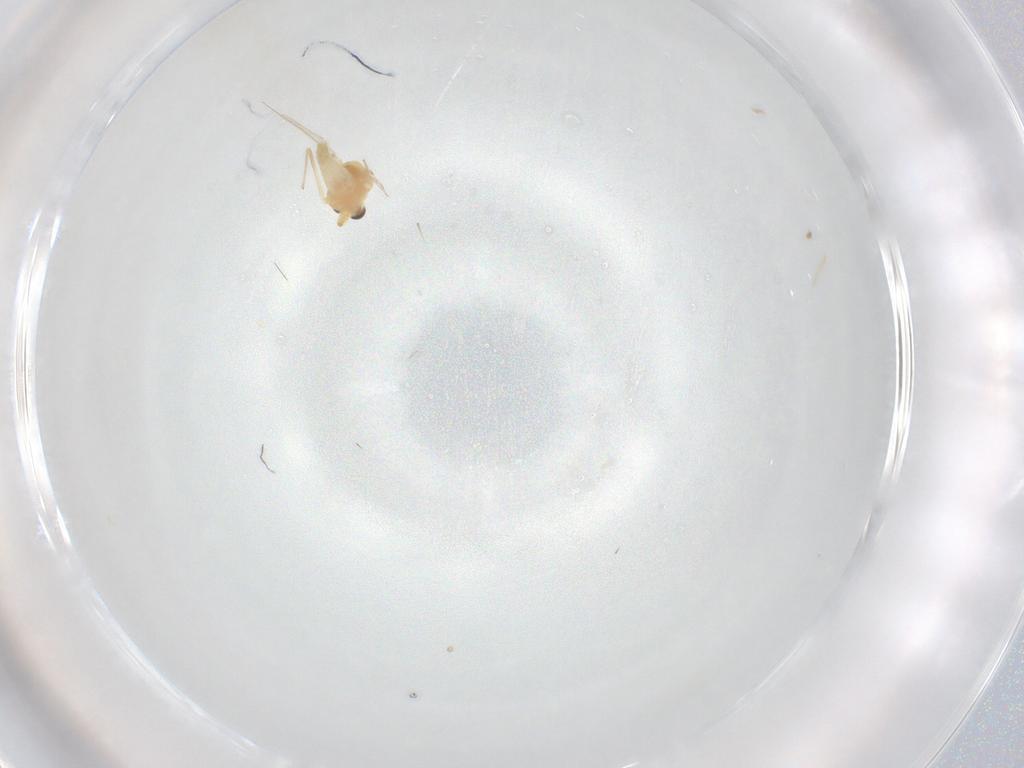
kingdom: Animalia
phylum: Arthropoda
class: Insecta
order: Diptera
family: Chironomidae
